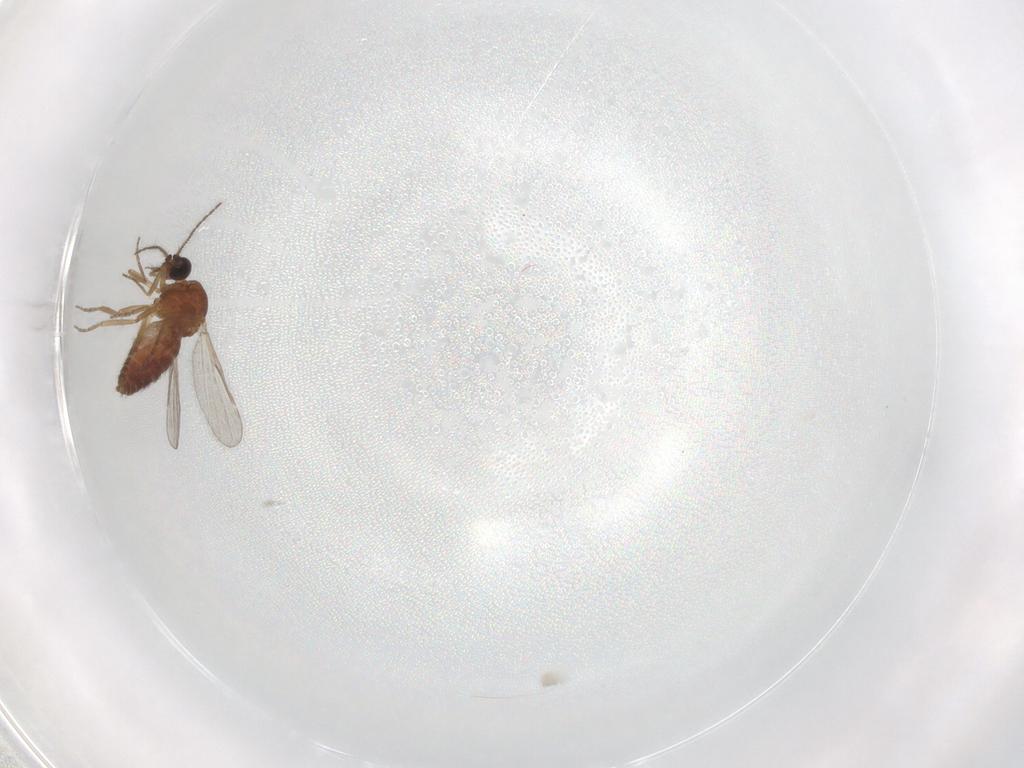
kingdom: Animalia
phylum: Arthropoda
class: Insecta
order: Diptera
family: Ceratopogonidae
